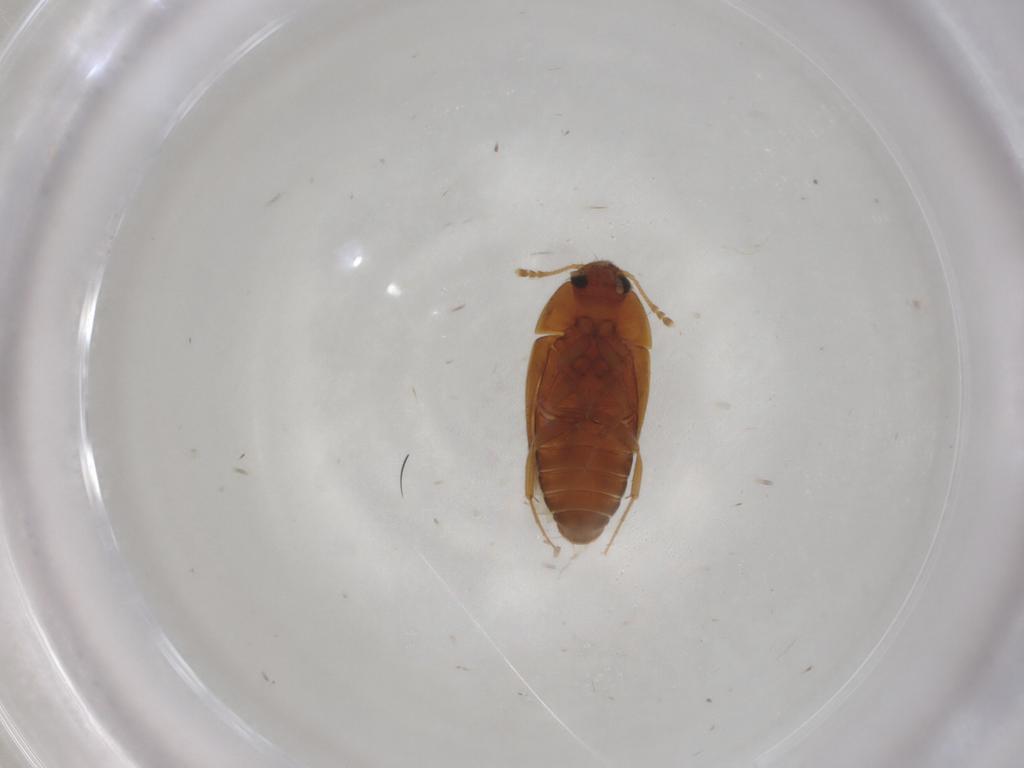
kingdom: Animalia
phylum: Arthropoda
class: Insecta
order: Coleoptera
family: Mycetophagidae
